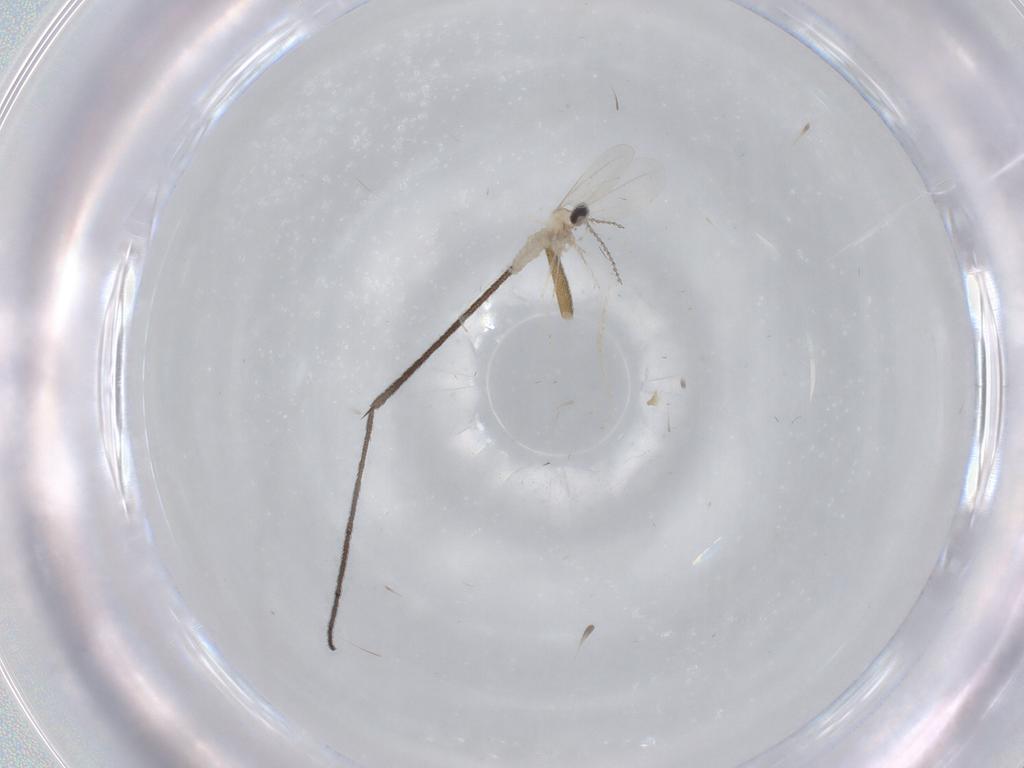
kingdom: Animalia
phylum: Arthropoda
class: Insecta
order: Diptera
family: Ditomyiidae
